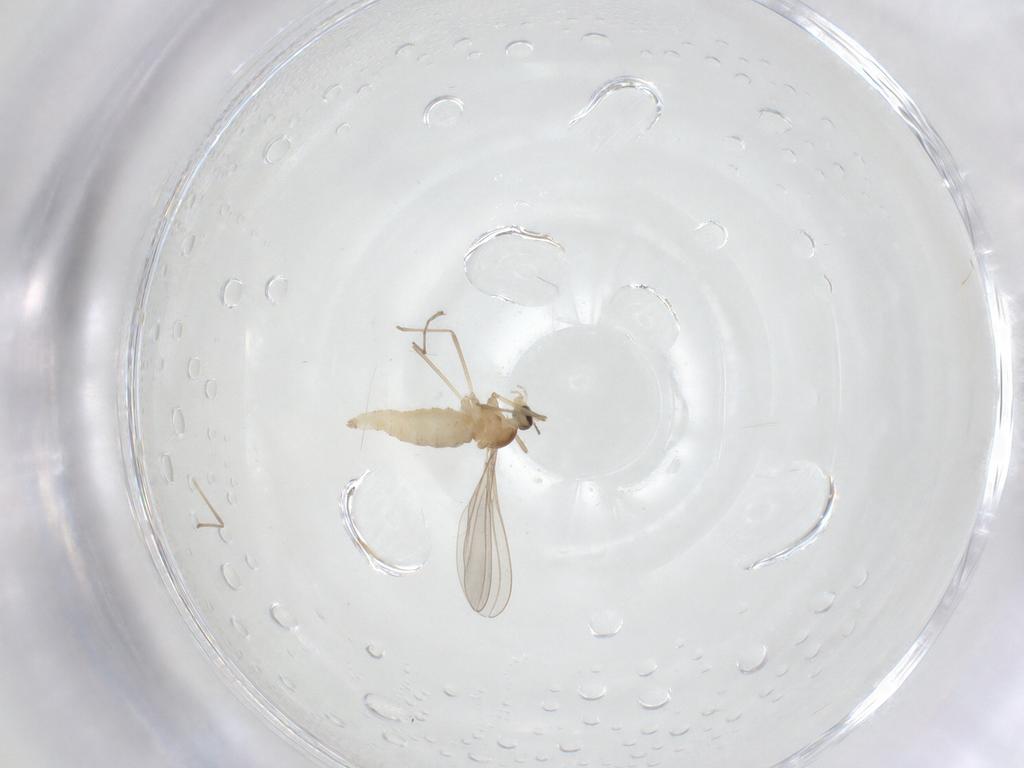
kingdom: Animalia
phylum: Arthropoda
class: Insecta
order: Diptera
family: Cecidomyiidae
